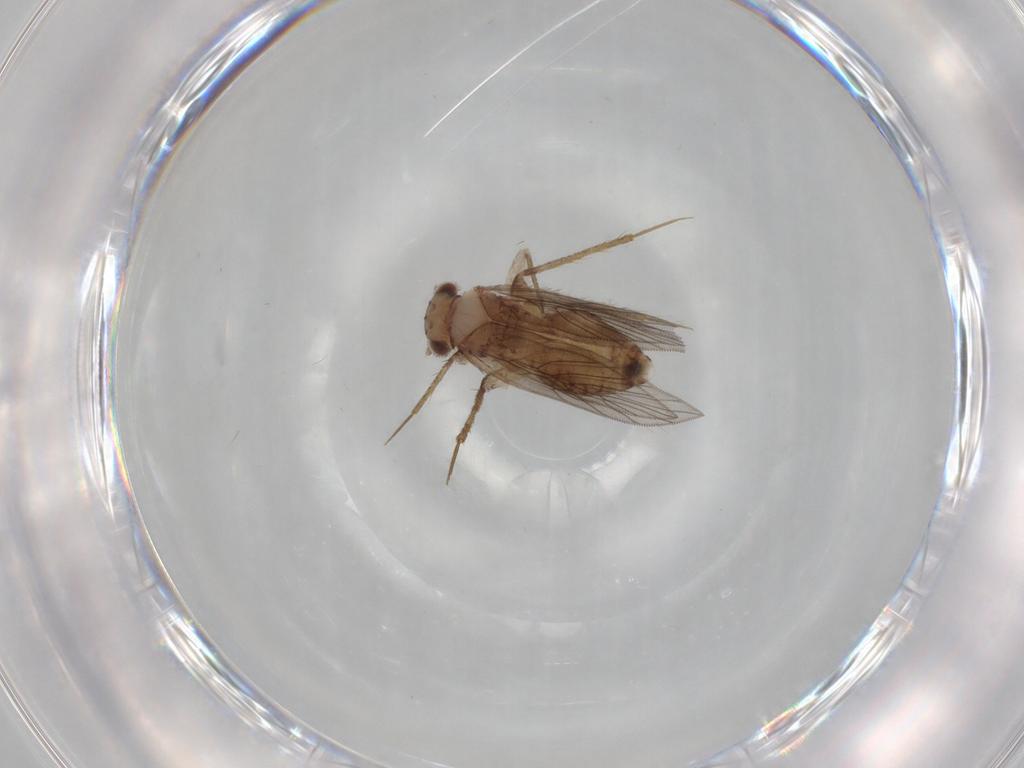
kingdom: Animalia
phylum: Arthropoda
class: Insecta
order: Psocodea
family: Lepidopsocidae
